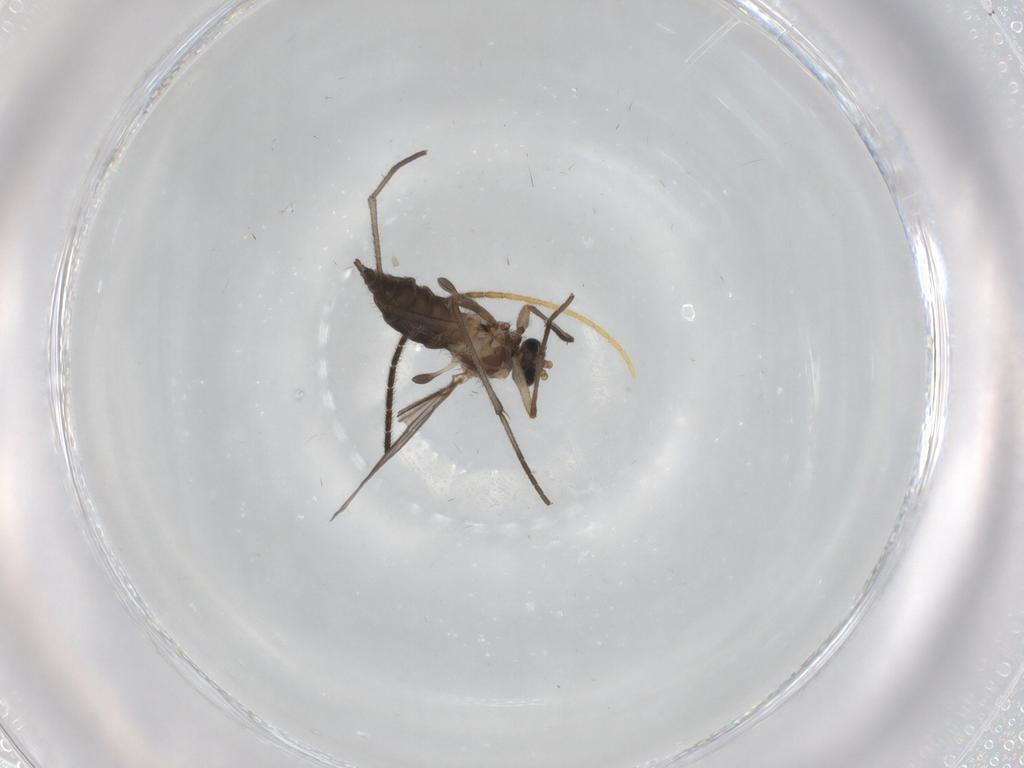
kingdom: Animalia
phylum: Arthropoda
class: Insecta
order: Diptera
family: Sciaridae
